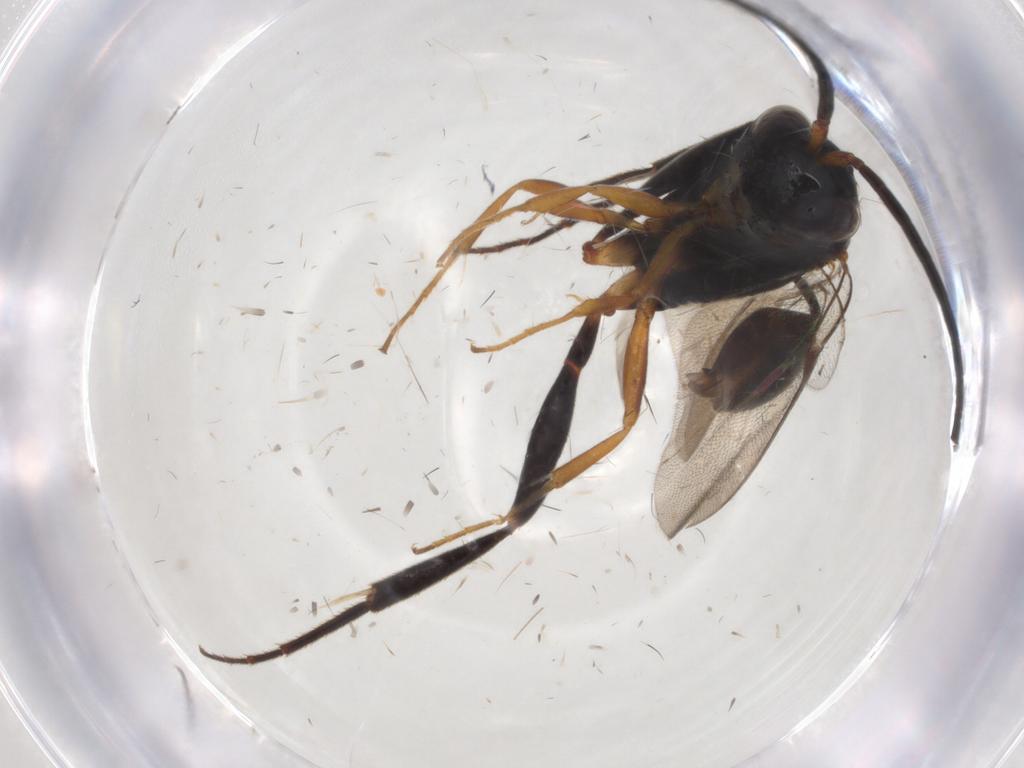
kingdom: Animalia
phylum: Arthropoda
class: Insecta
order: Hymenoptera
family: Evaniidae
